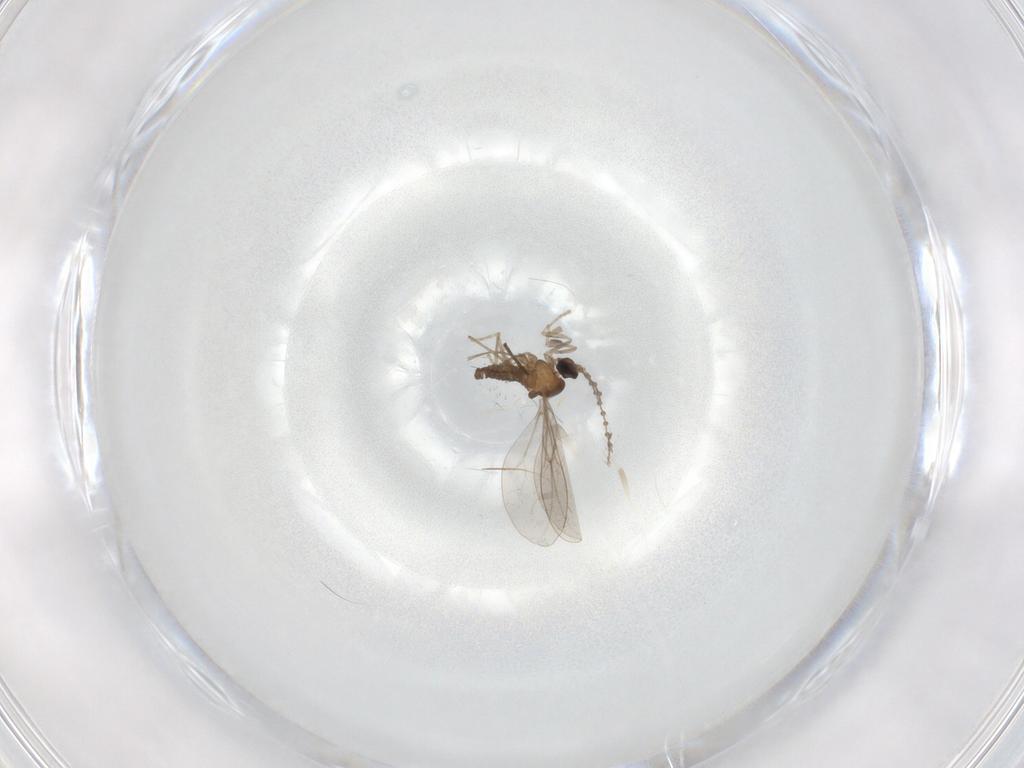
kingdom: Animalia
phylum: Arthropoda
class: Insecta
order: Diptera
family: Cecidomyiidae
